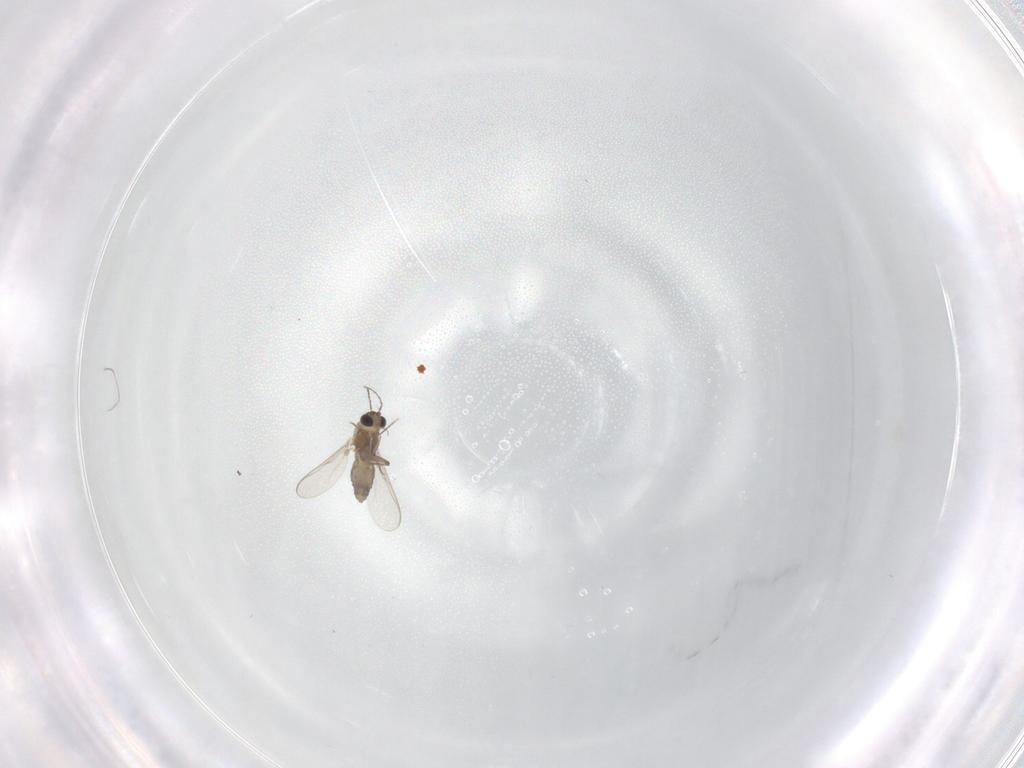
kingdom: Animalia
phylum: Arthropoda
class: Insecta
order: Diptera
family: Phoridae
